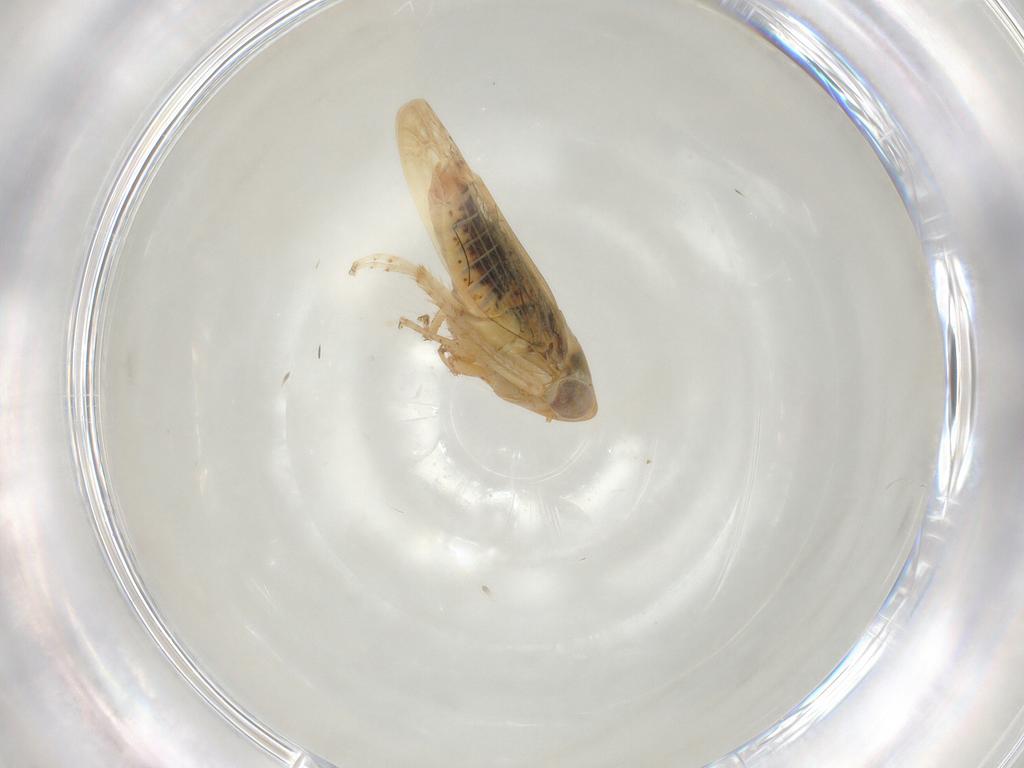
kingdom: Animalia
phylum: Arthropoda
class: Insecta
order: Hemiptera
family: Cicadellidae
